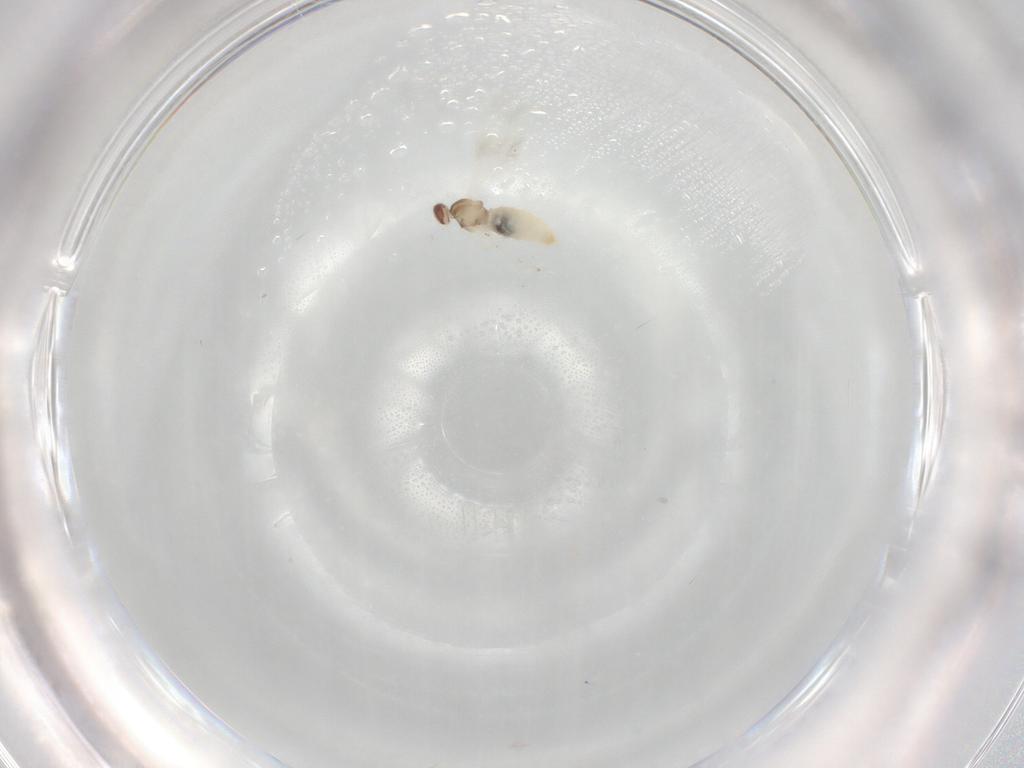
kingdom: Animalia
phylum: Arthropoda
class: Insecta
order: Diptera
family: Cecidomyiidae
